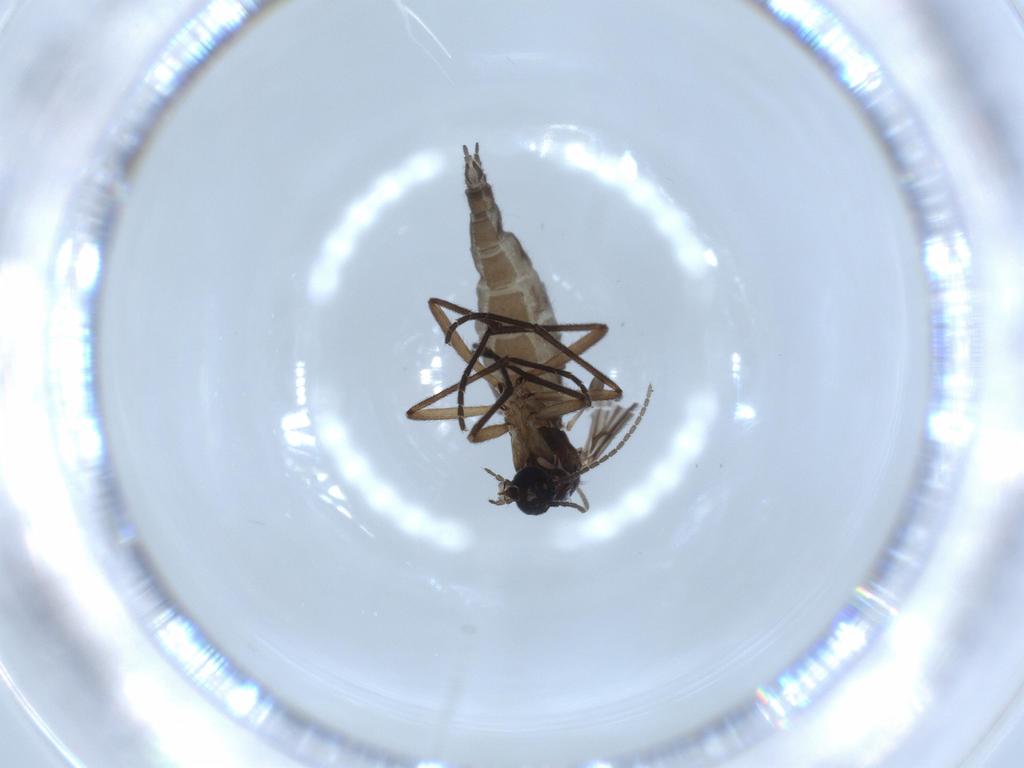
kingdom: Animalia
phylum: Arthropoda
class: Insecta
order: Diptera
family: Sciaridae
